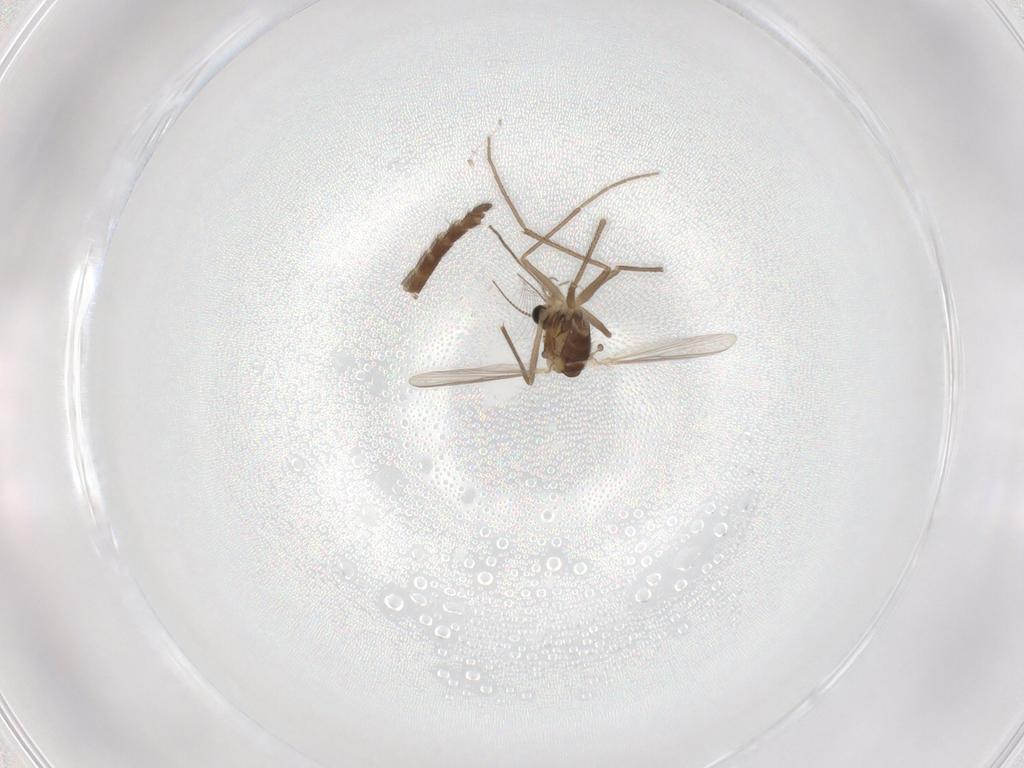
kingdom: Animalia
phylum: Arthropoda
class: Insecta
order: Diptera
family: Chironomidae
